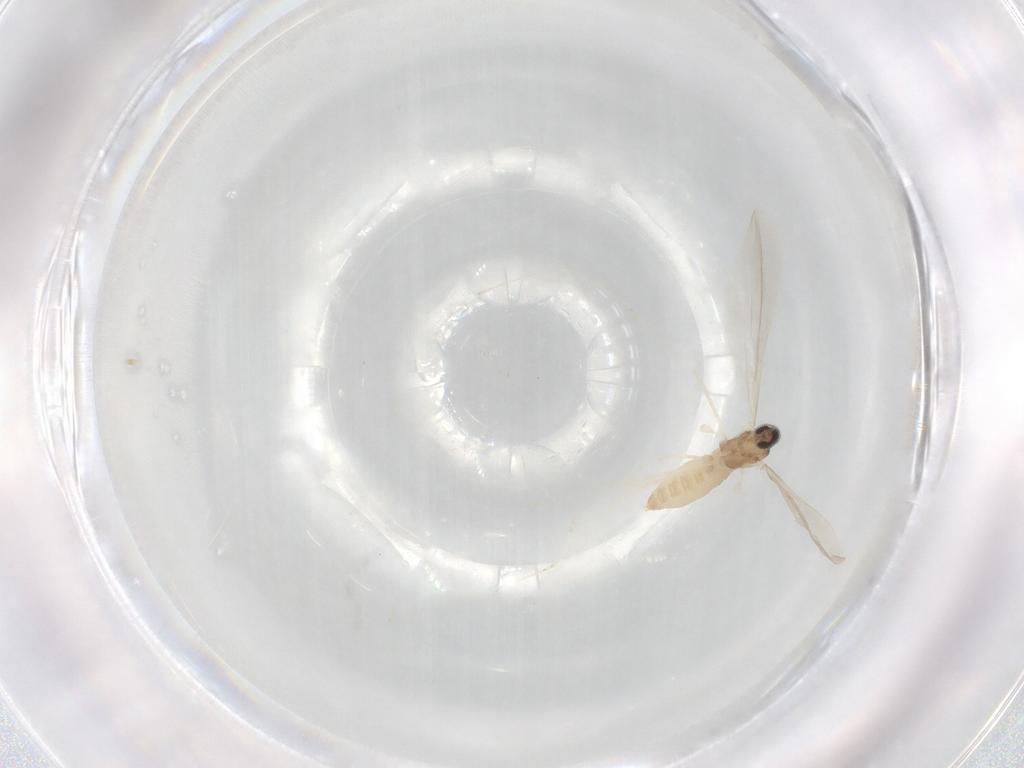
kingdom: Animalia
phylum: Arthropoda
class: Insecta
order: Diptera
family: Cecidomyiidae
